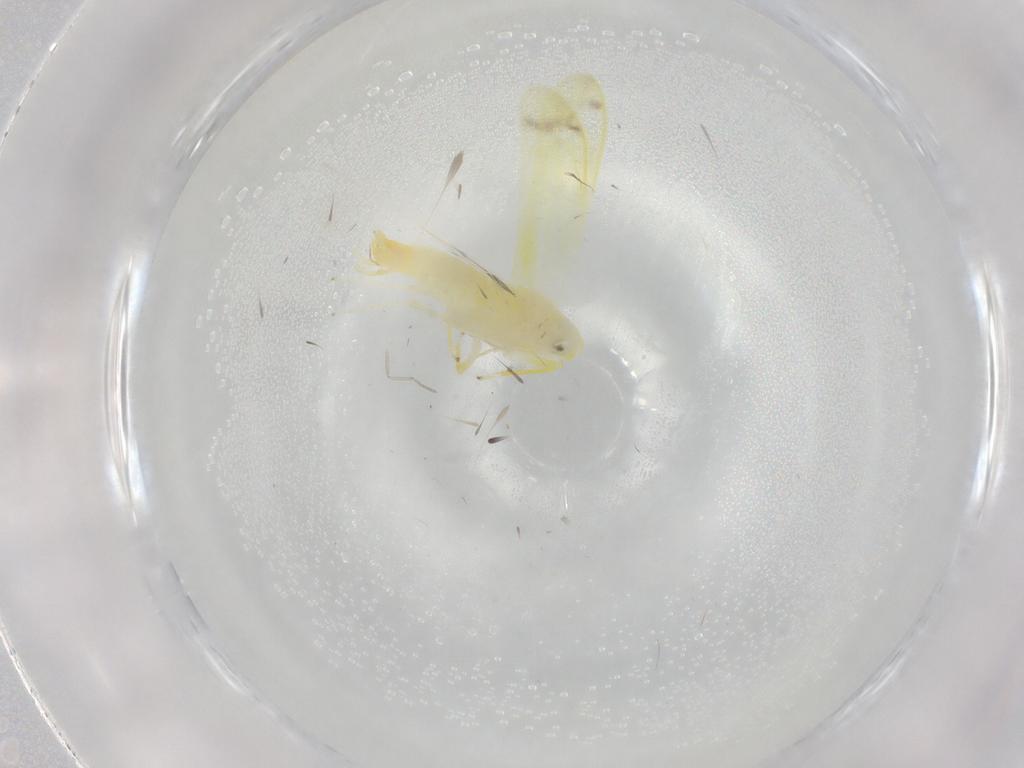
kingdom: Animalia
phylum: Arthropoda
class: Insecta
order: Hemiptera
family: Cicadellidae
